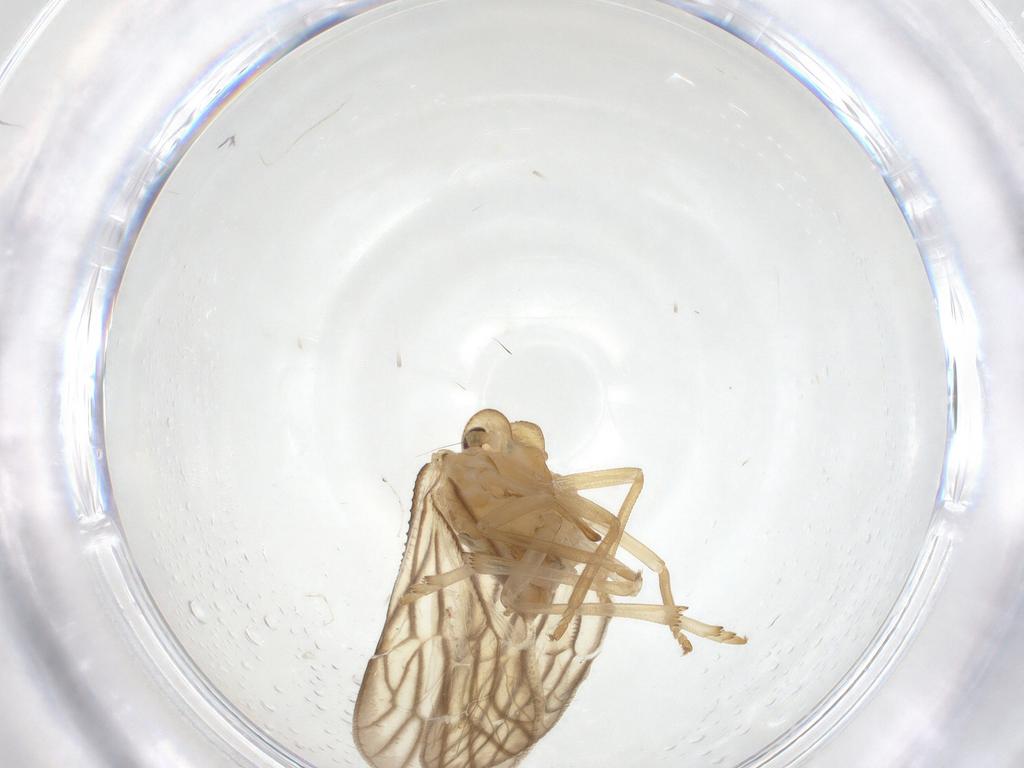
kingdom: Animalia
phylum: Arthropoda
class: Insecta
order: Hemiptera
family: Meenoplidae
